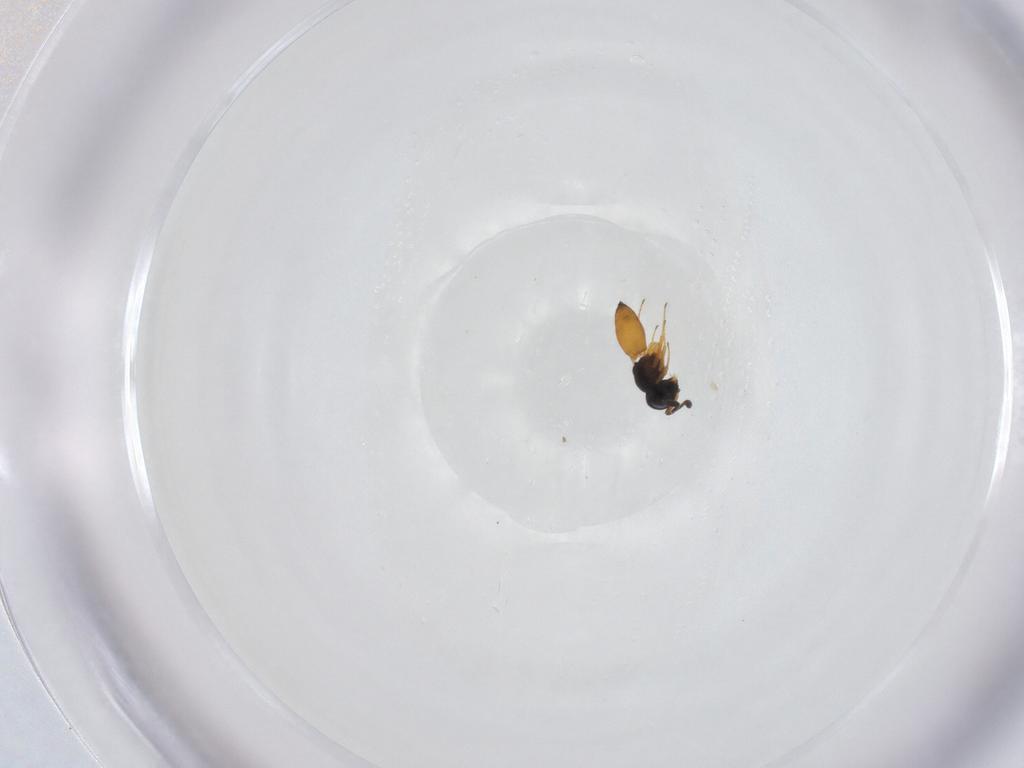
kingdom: Animalia
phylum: Arthropoda
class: Insecta
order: Hymenoptera
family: Scelionidae
